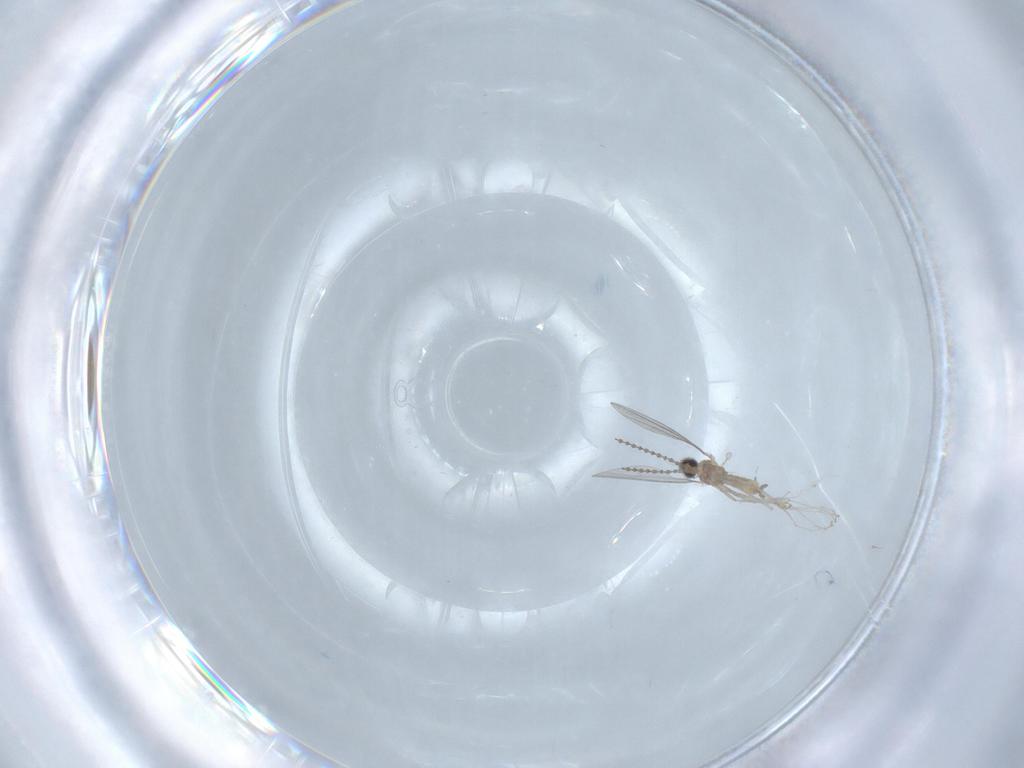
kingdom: Animalia
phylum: Arthropoda
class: Insecta
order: Diptera
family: Cecidomyiidae
